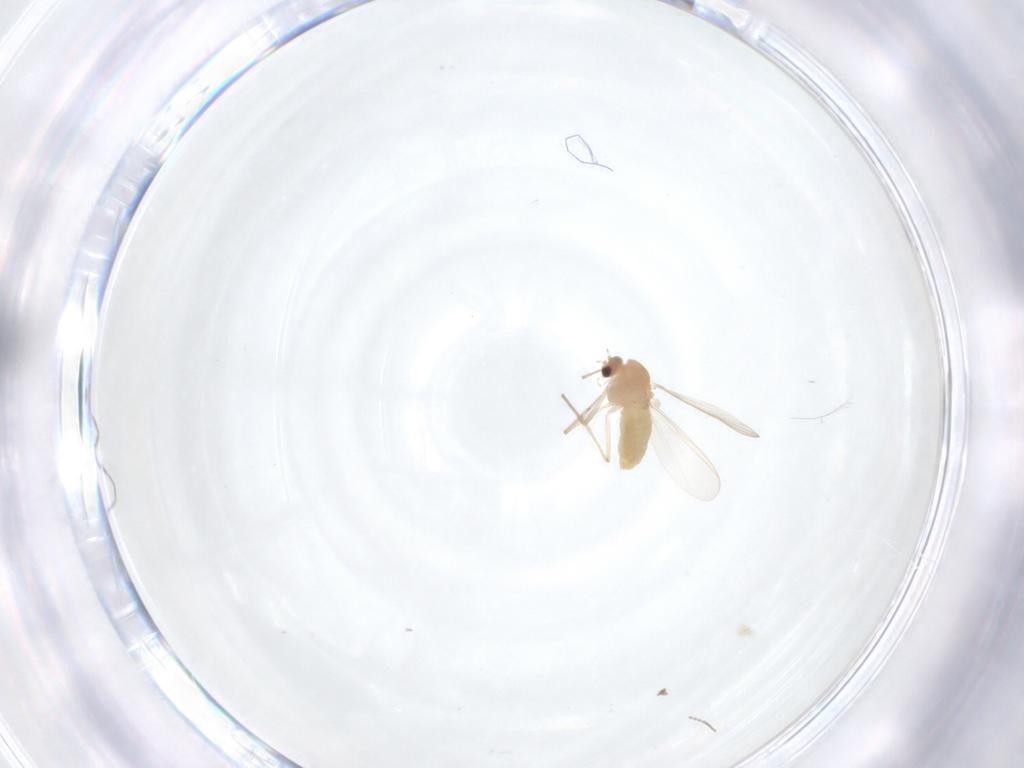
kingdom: Animalia
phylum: Arthropoda
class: Insecta
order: Diptera
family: Chironomidae
